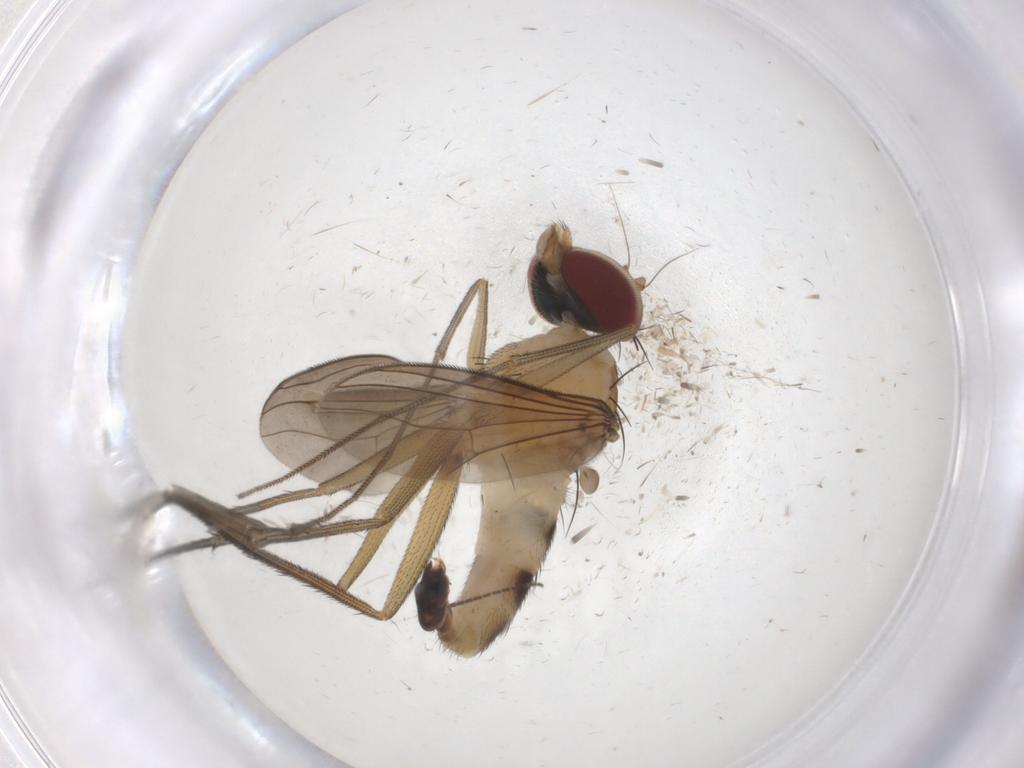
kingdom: Animalia
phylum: Arthropoda
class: Insecta
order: Diptera
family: Dolichopodidae
